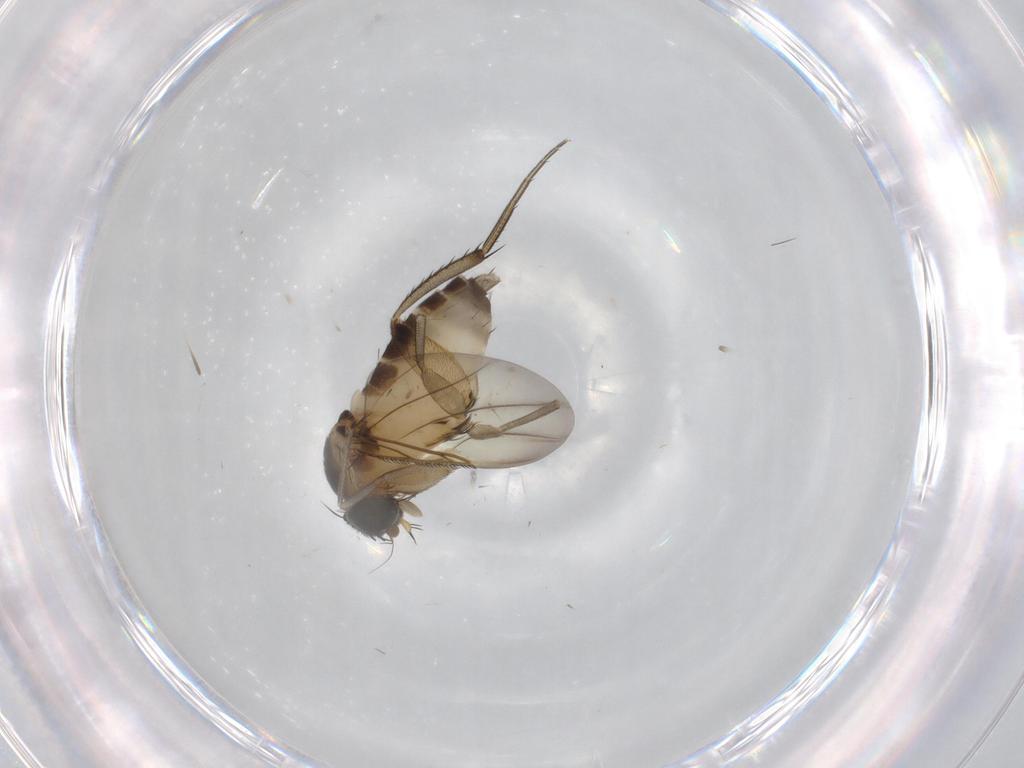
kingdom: Animalia
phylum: Arthropoda
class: Insecta
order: Diptera
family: Phoridae
